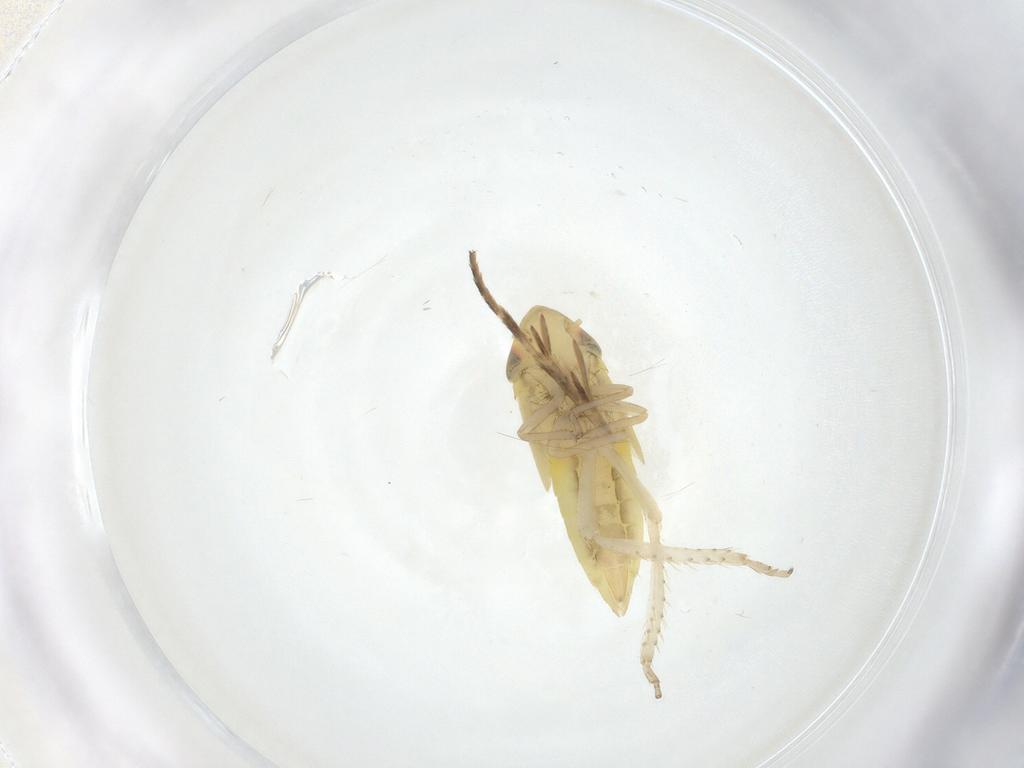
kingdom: Animalia
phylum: Arthropoda
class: Insecta
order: Hemiptera
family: Cicadellidae
